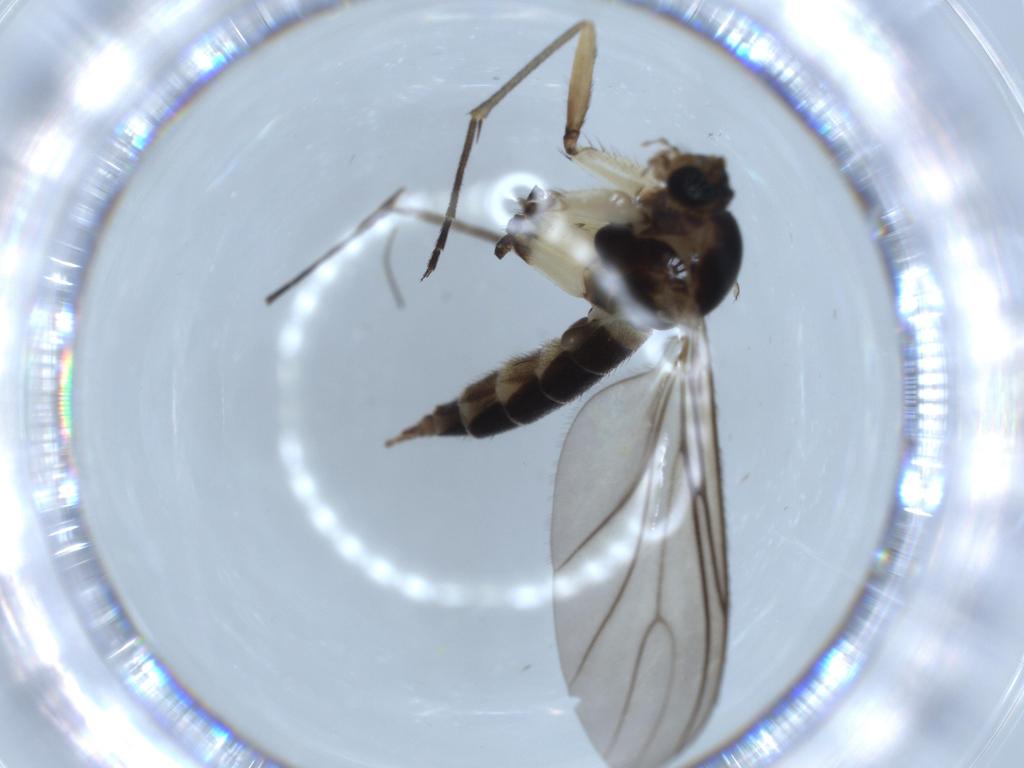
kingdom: Animalia
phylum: Arthropoda
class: Insecta
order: Diptera
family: Sciaridae
